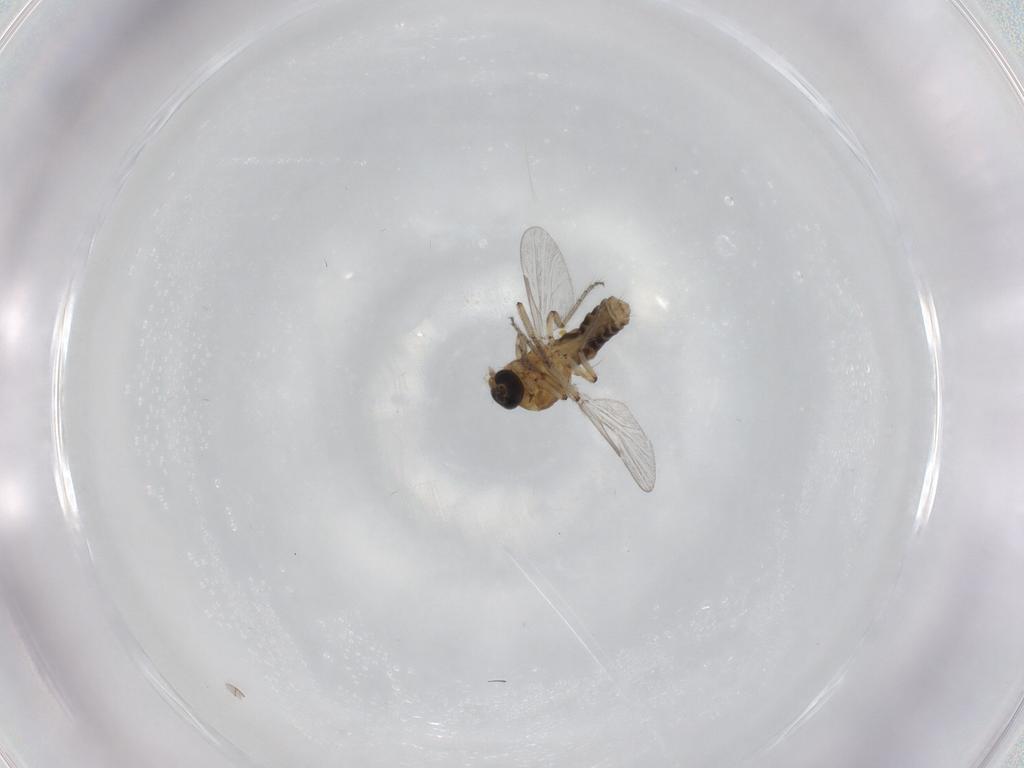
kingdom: Animalia
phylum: Arthropoda
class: Insecta
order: Diptera
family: Ceratopogonidae
